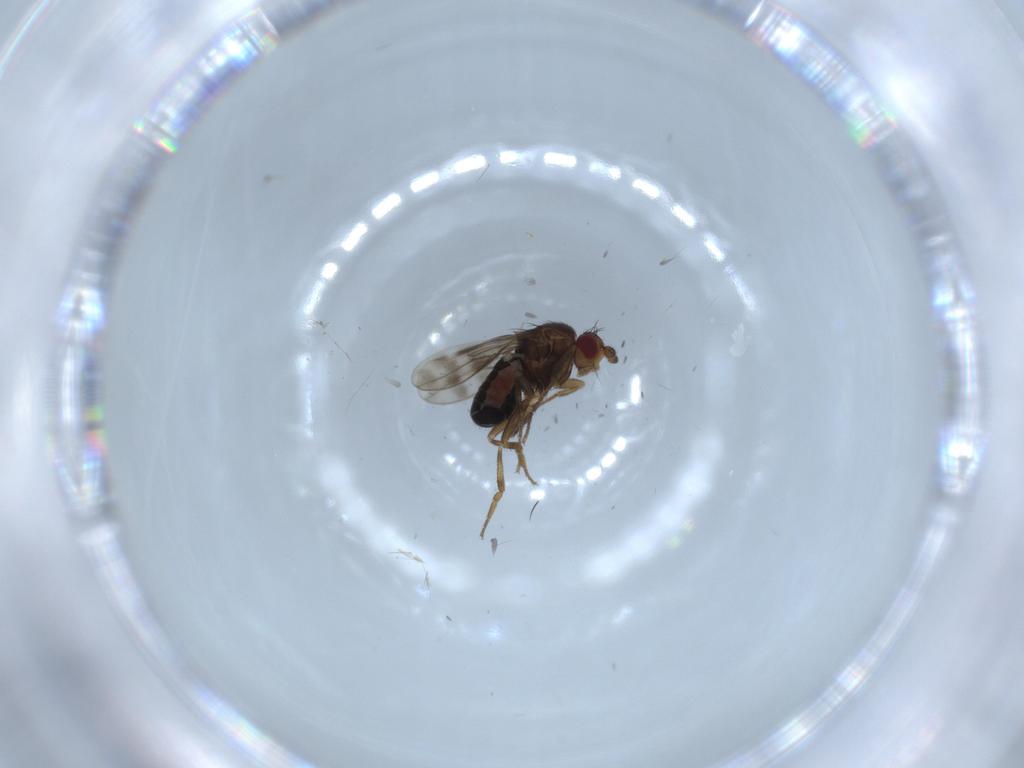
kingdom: Animalia
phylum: Arthropoda
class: Insecta
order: Diptera
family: Sphaeroceridae
